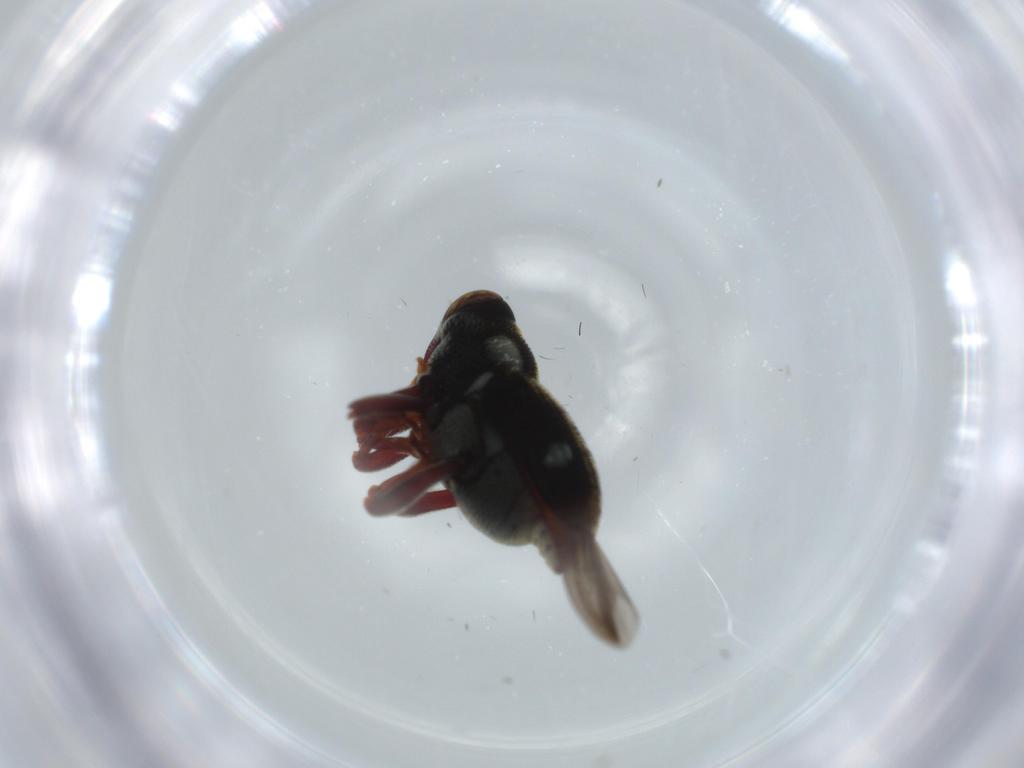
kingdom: Animalia
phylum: Arthropoda
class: Insecta
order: Coleoptera
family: Chrysomelidae
